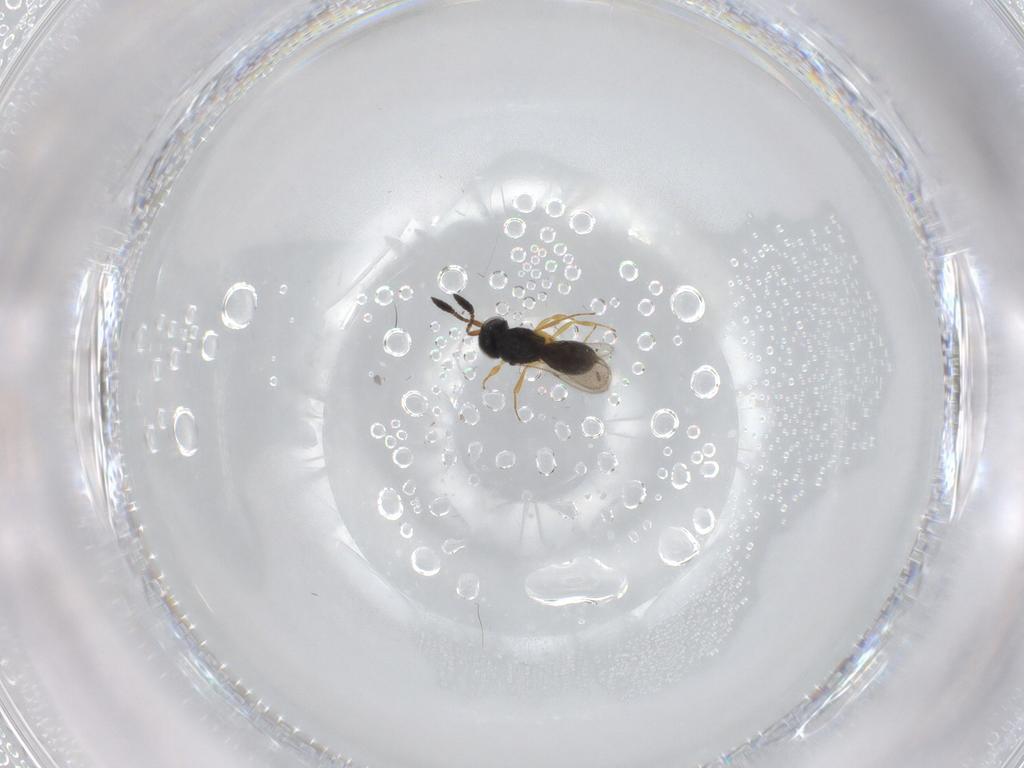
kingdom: Animalia
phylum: Arthropoda
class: Insecta
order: Hymenoptera
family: Scelionidae
